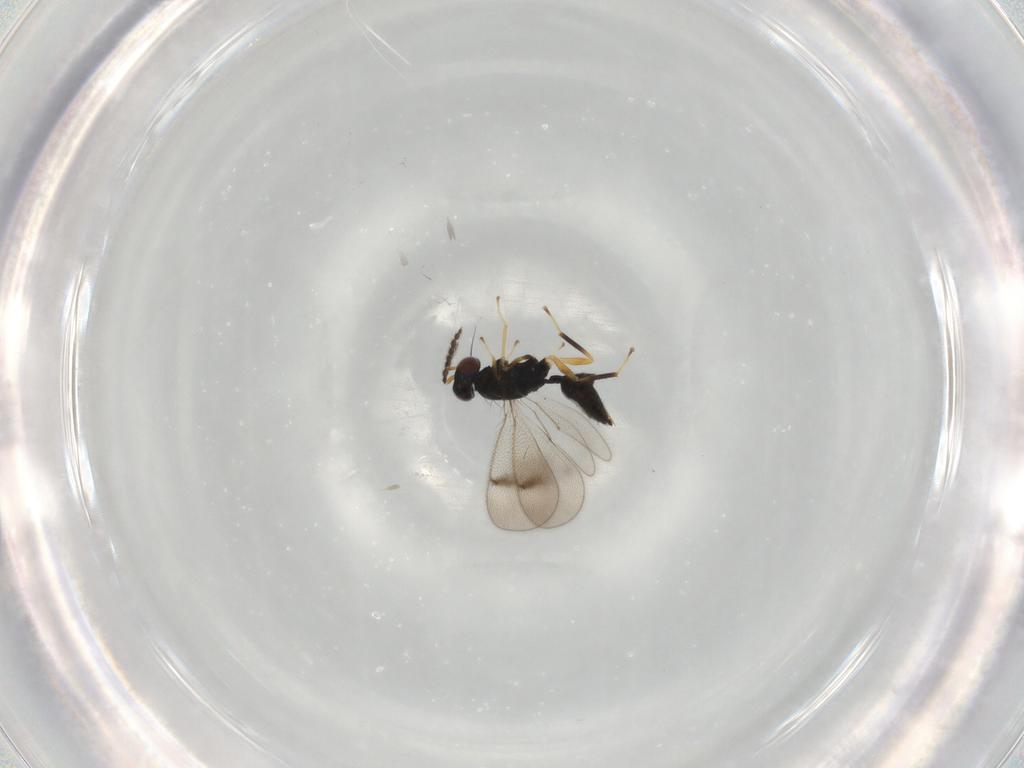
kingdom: Animalia
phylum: Arthropoda
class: Insecta
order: Hymenoptera
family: Eulophidae
